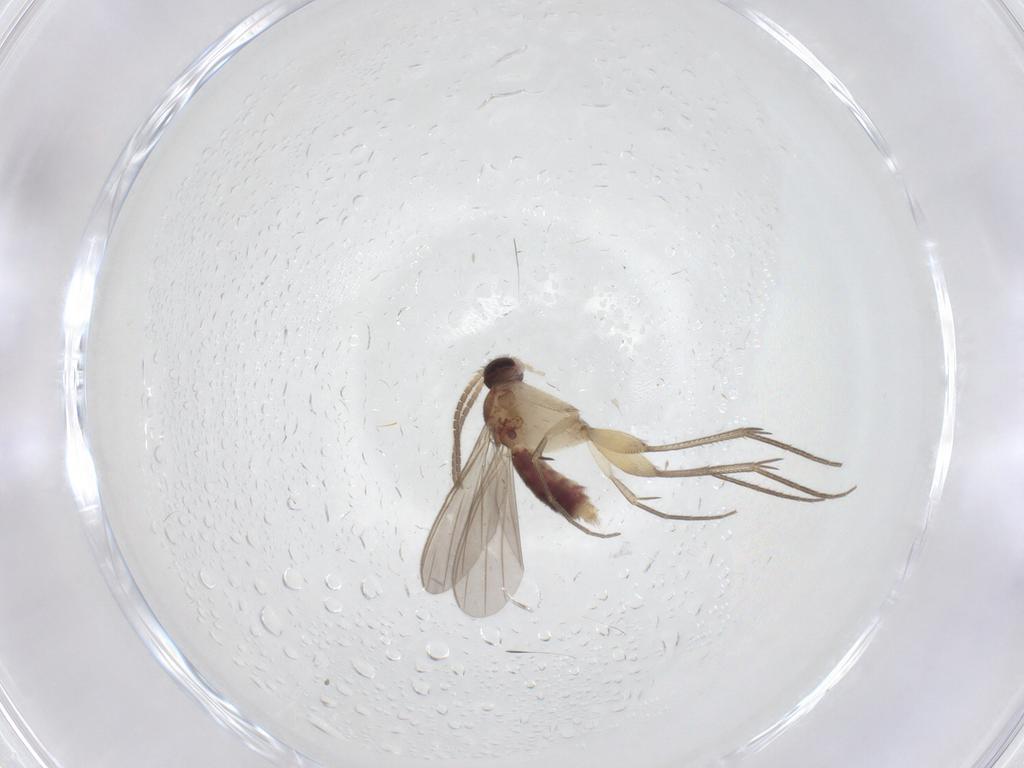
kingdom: Animalia
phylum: Arthropoda
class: Insecta
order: Diptera
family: Mycetophilidae
